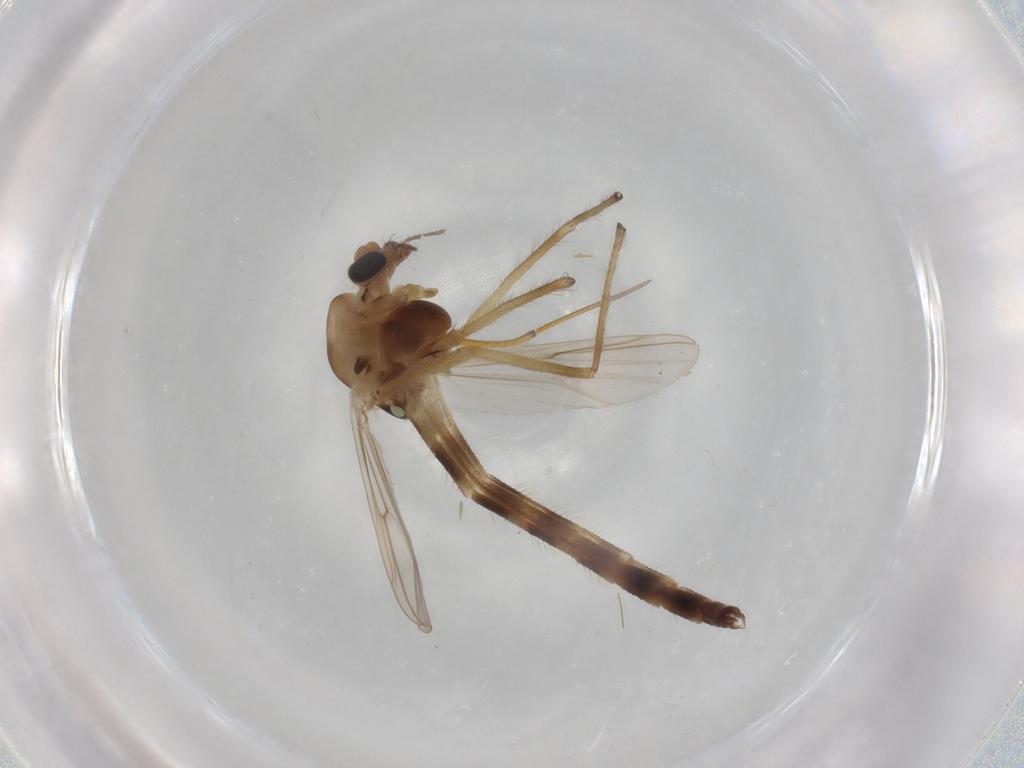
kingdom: Animalia
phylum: Arthropoda
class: Insecta
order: Diptera
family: Chironomidae
